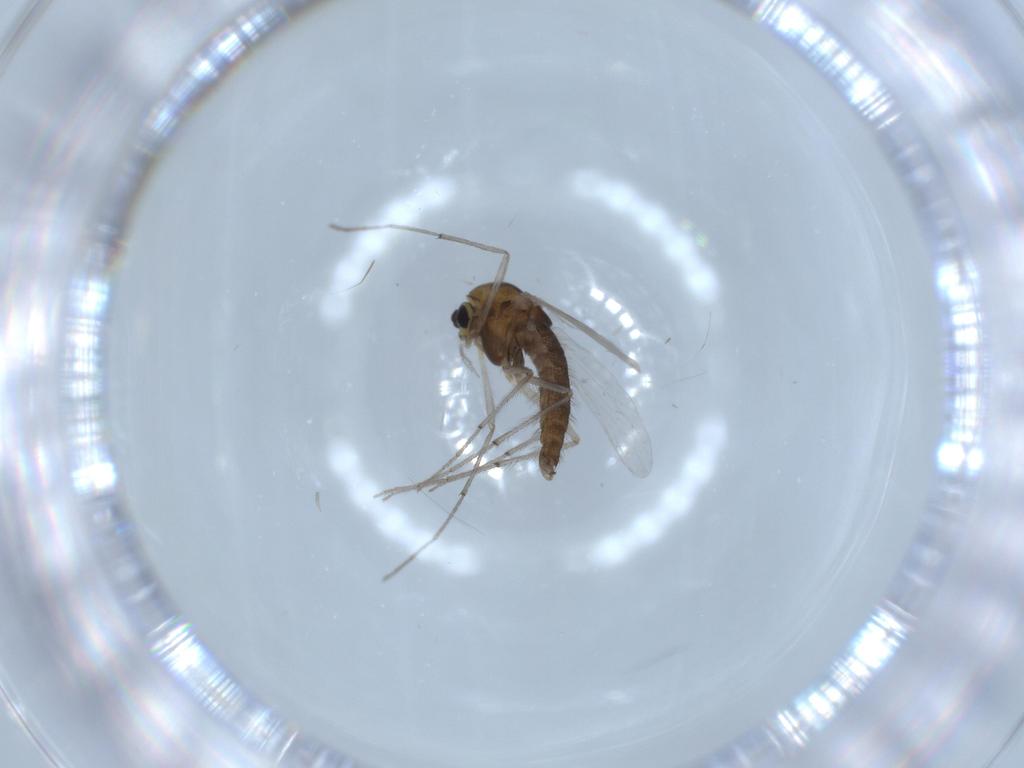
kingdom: Animalia
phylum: Arthropoda
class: Insecta
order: Diptera
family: Chironomidae
